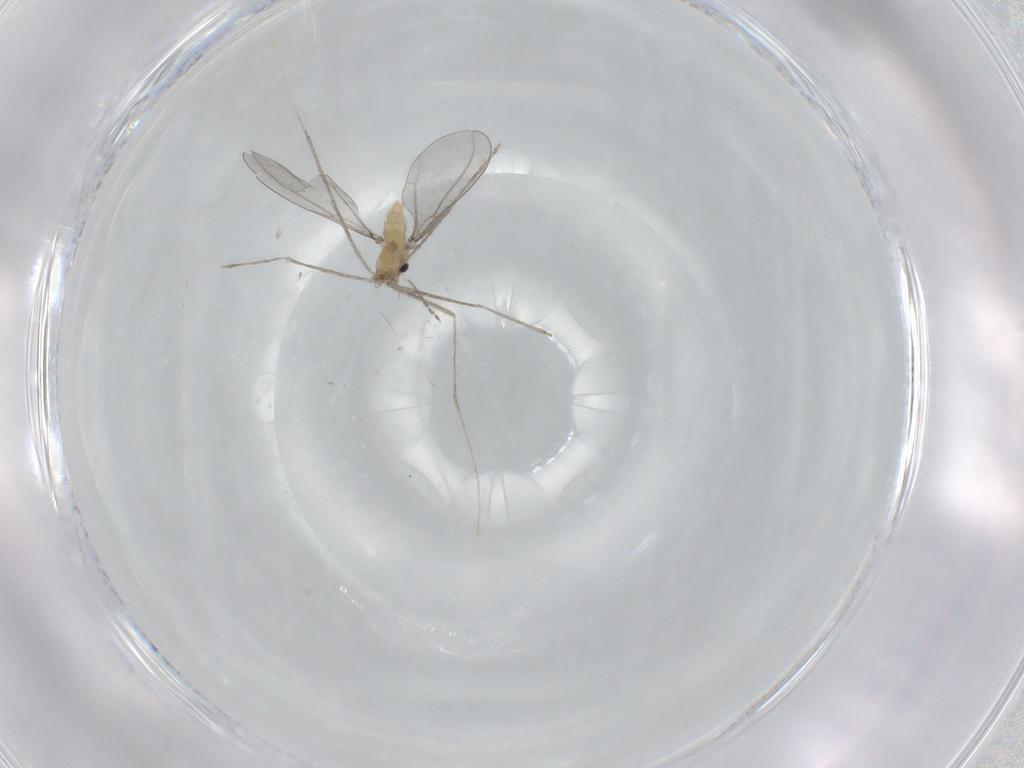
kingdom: Animalia
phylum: Arthropoda
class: Insecta
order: Diptera
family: Cecidomyiidae
